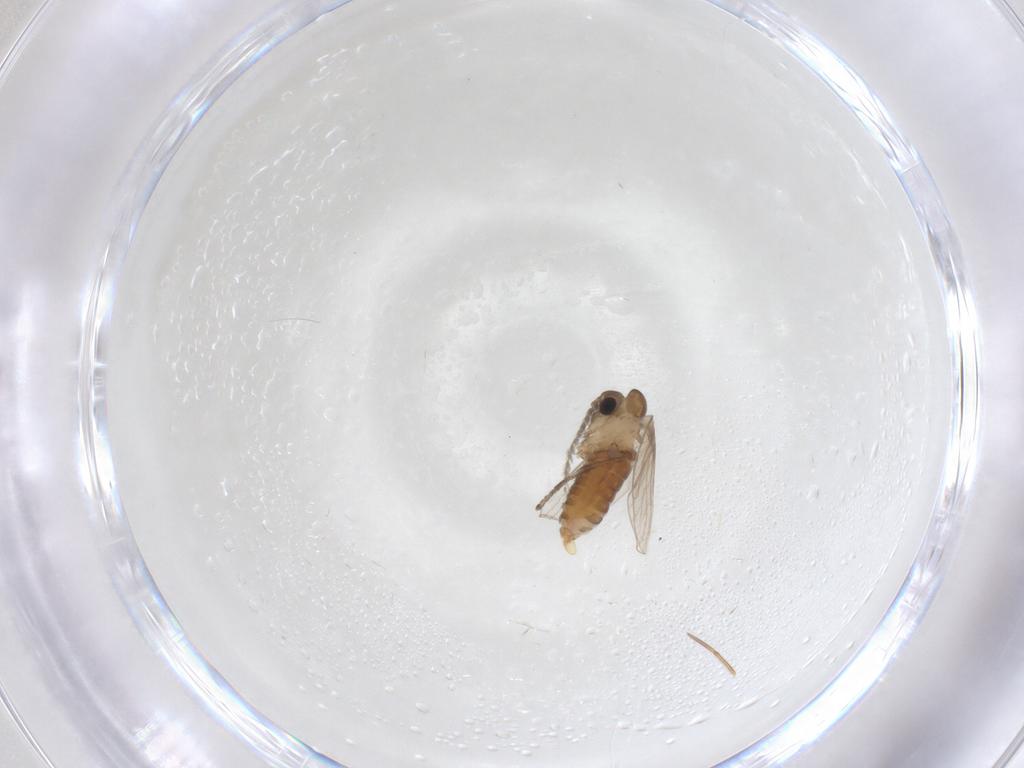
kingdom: Animalia
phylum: Arthropoda
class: Insecta
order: Diptera
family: Psychodidae
